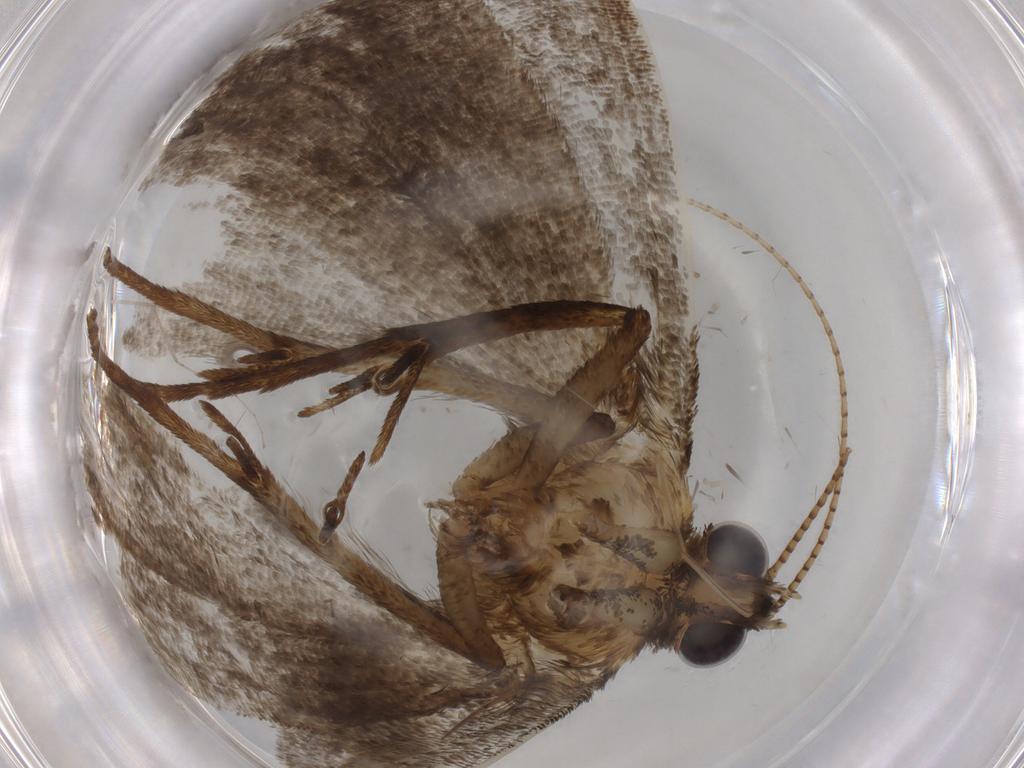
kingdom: Animalia
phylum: Arthropoda
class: Insecta
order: Lepidoptera
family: Erebidae
